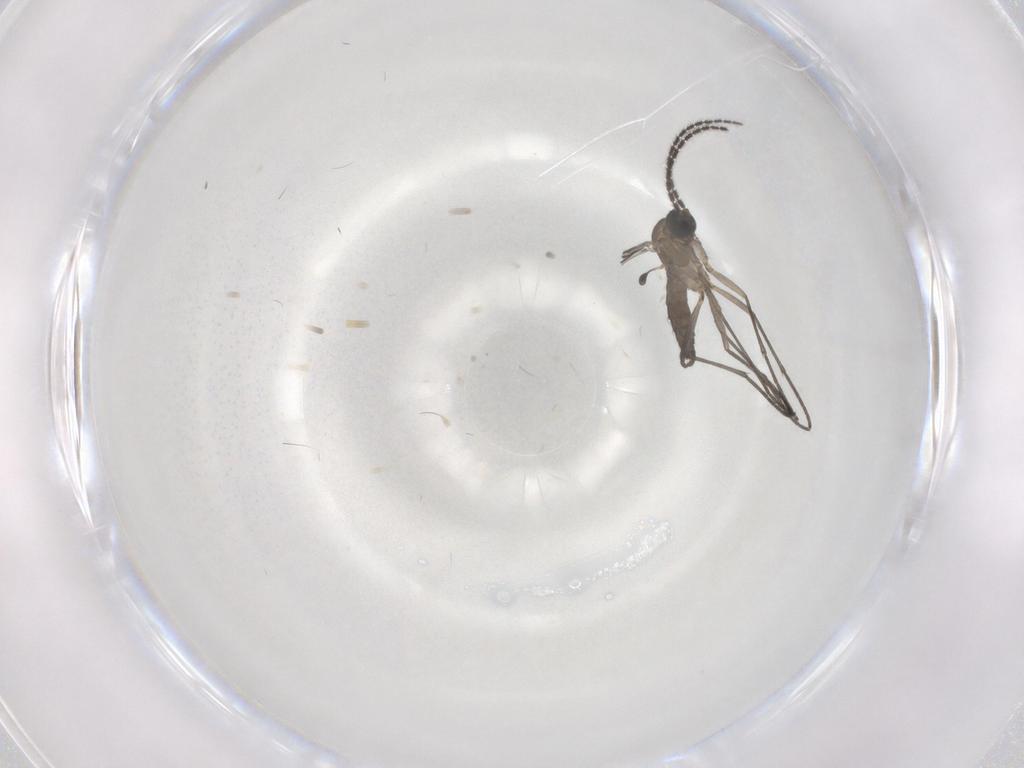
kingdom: Animalia
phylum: Arthropoda
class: Insecta
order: Diptera
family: Sciaridae
